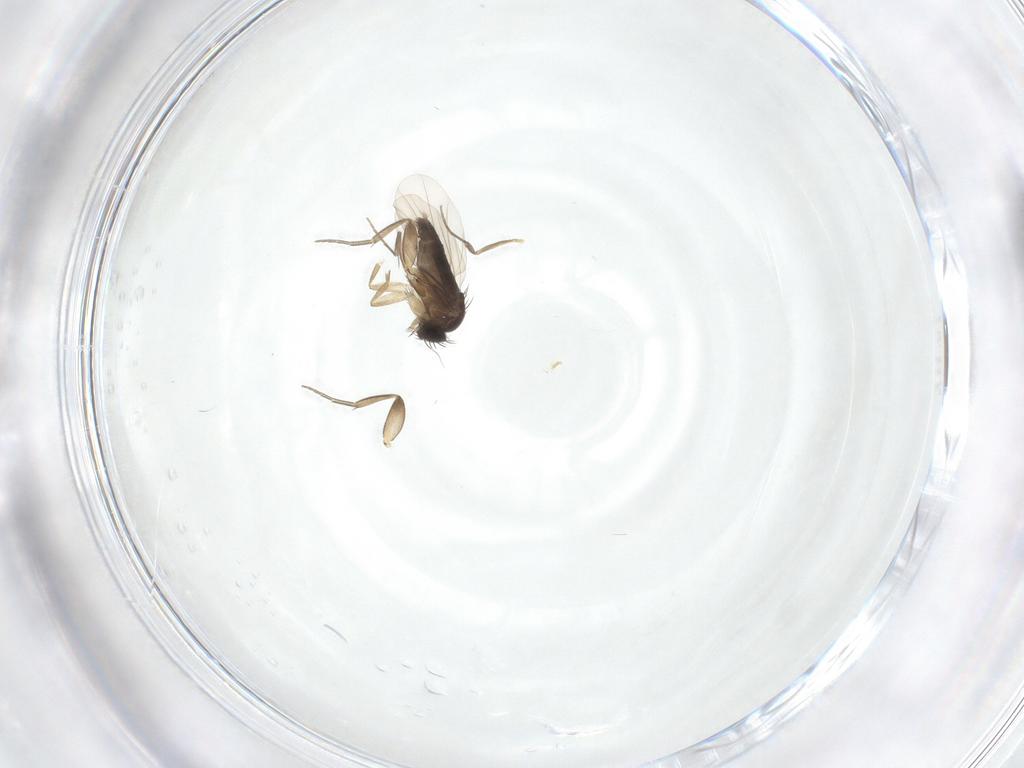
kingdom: Animalia
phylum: Arthropoda
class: Insecta
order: Diptera
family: Phoridae
